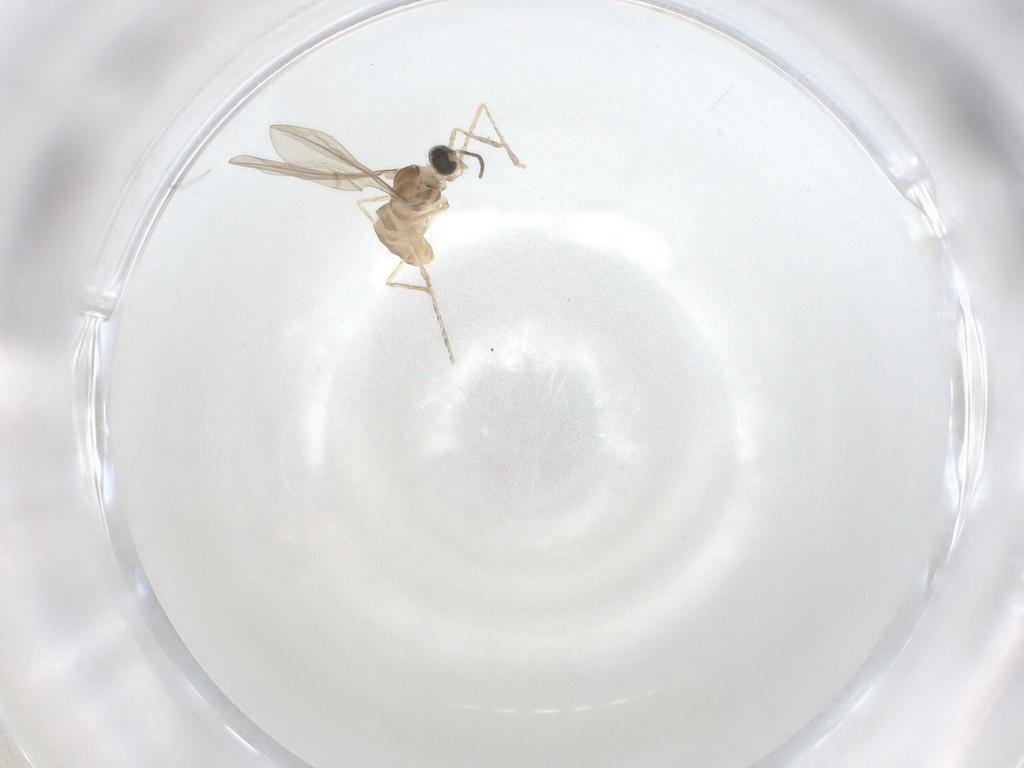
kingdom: Animalia
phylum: Arthropoda
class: Insecta
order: Diptera
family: Cecidomyiidae
